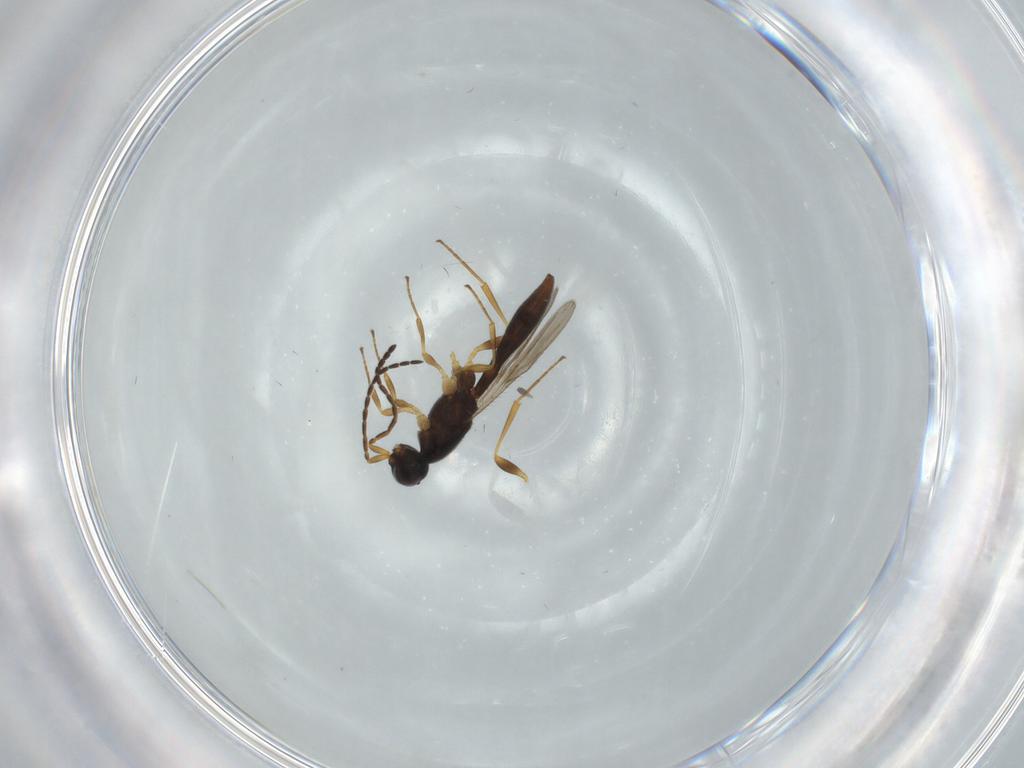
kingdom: Animalia
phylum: Arthropoda
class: Insecta
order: Hymenoptera
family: Scelionidae
